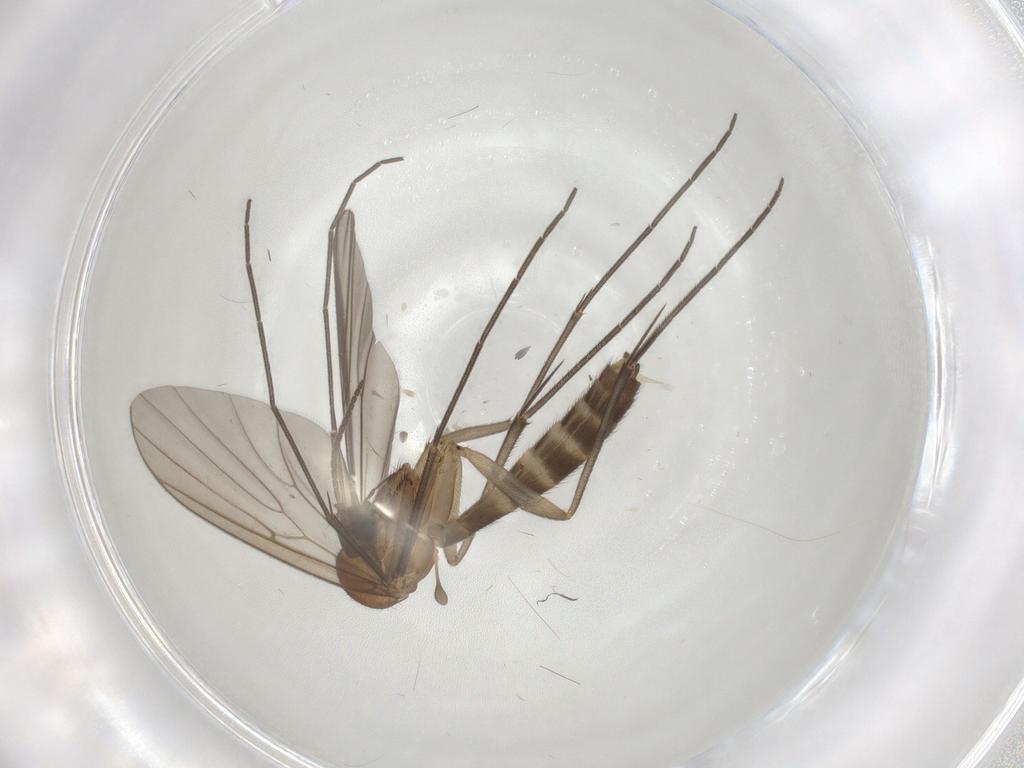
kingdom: Animalia
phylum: Arthropoda
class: Insecta
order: Diptera
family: Mycetophilidae
